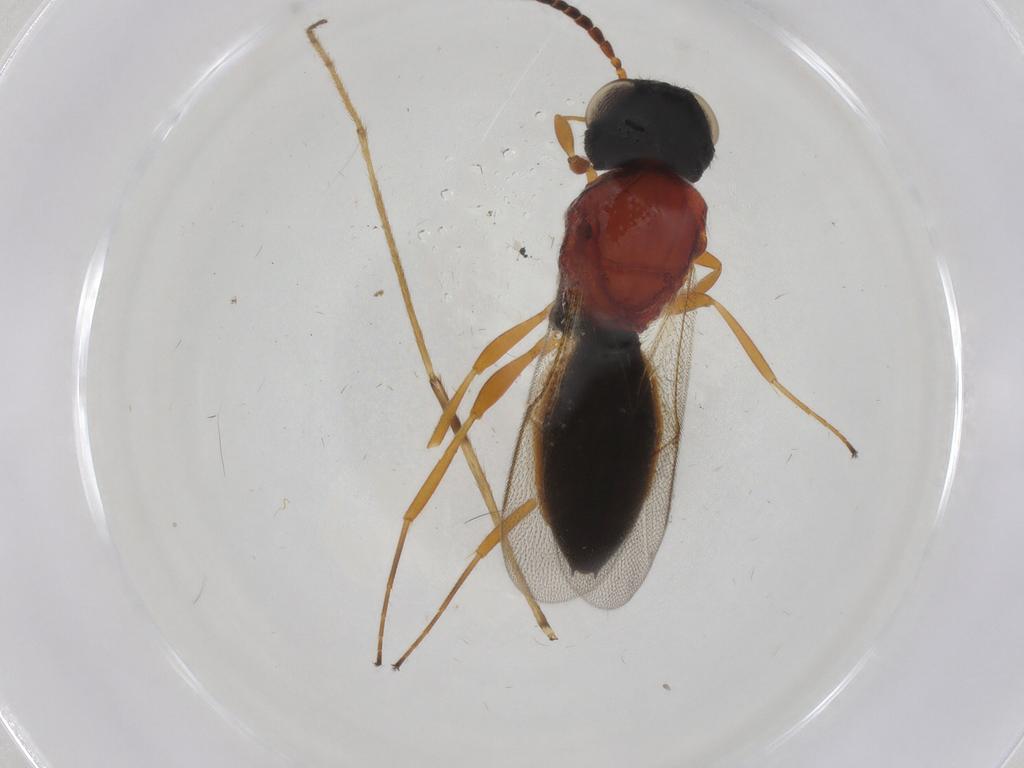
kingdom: Animalia
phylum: Arthropoda
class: Insecta
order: Hymenoptera
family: Scelionidae
